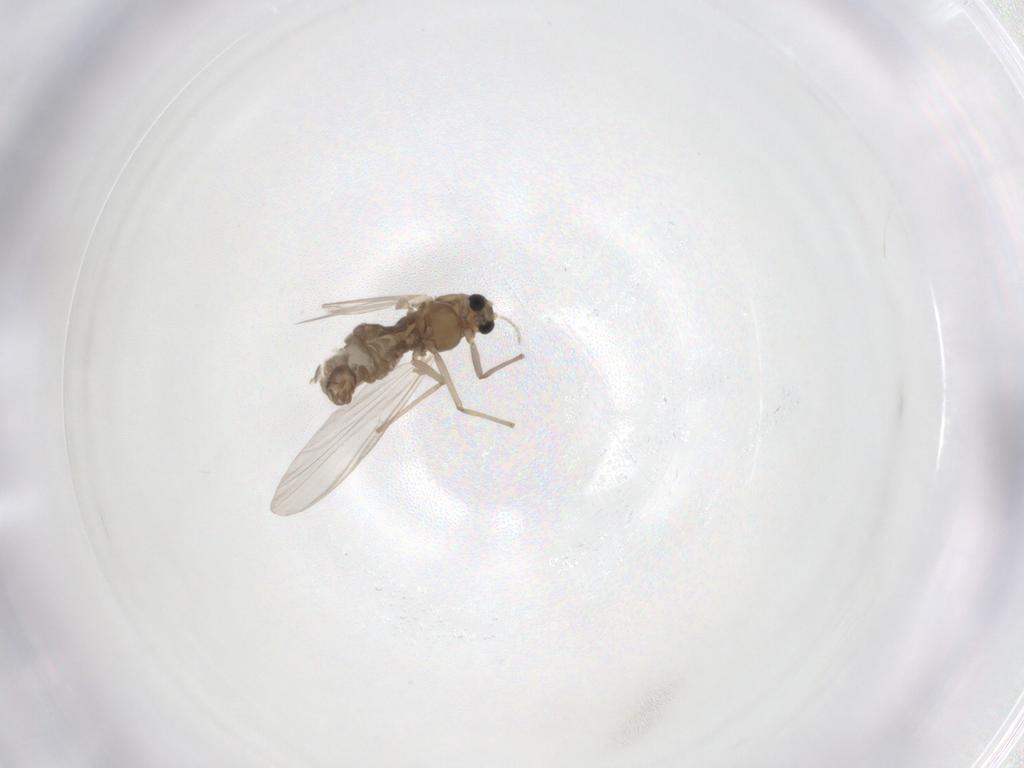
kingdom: Animalia
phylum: Arthropoda
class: Insecta
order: Diptera
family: Chironomidae
